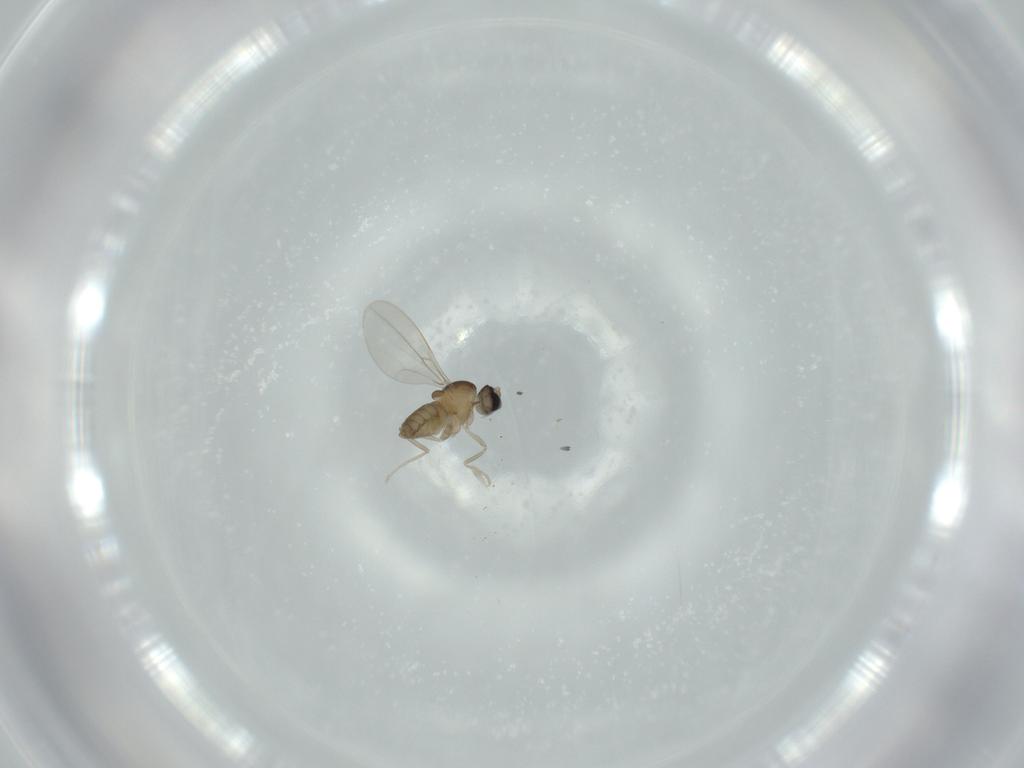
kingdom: Animalia
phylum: Arthropoda
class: Insecta
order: Diptera
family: Cecidomyiidae
